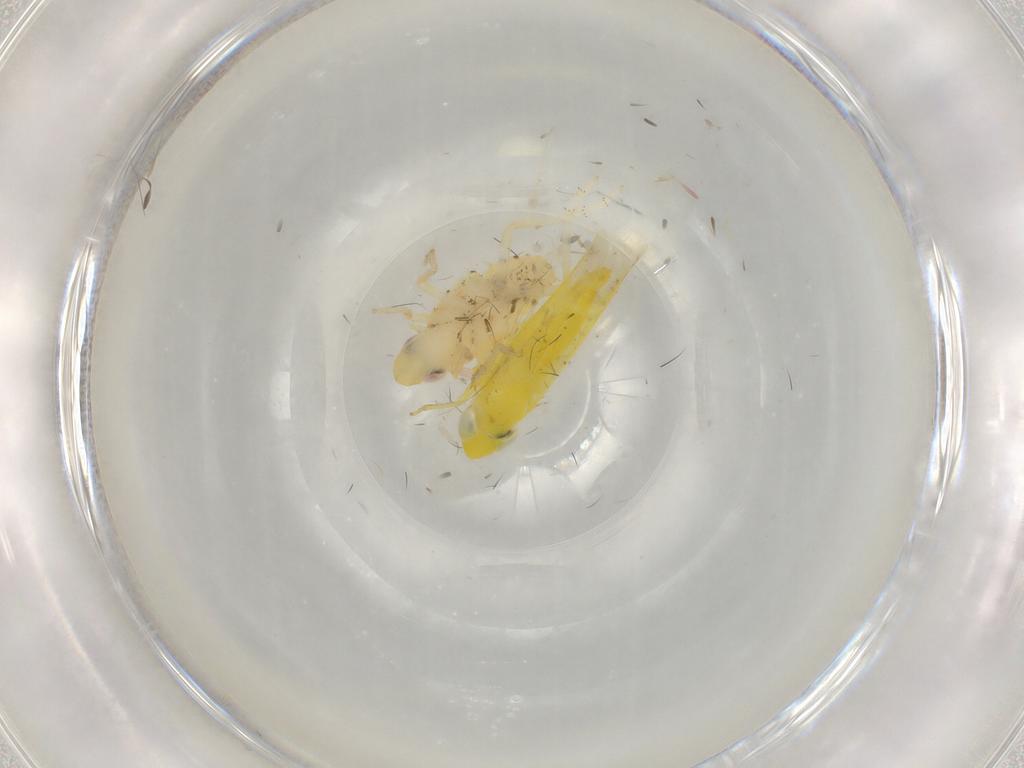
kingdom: Animalia
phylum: Arthropoda
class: Insecta
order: Hemiptera
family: Cicadellidae
